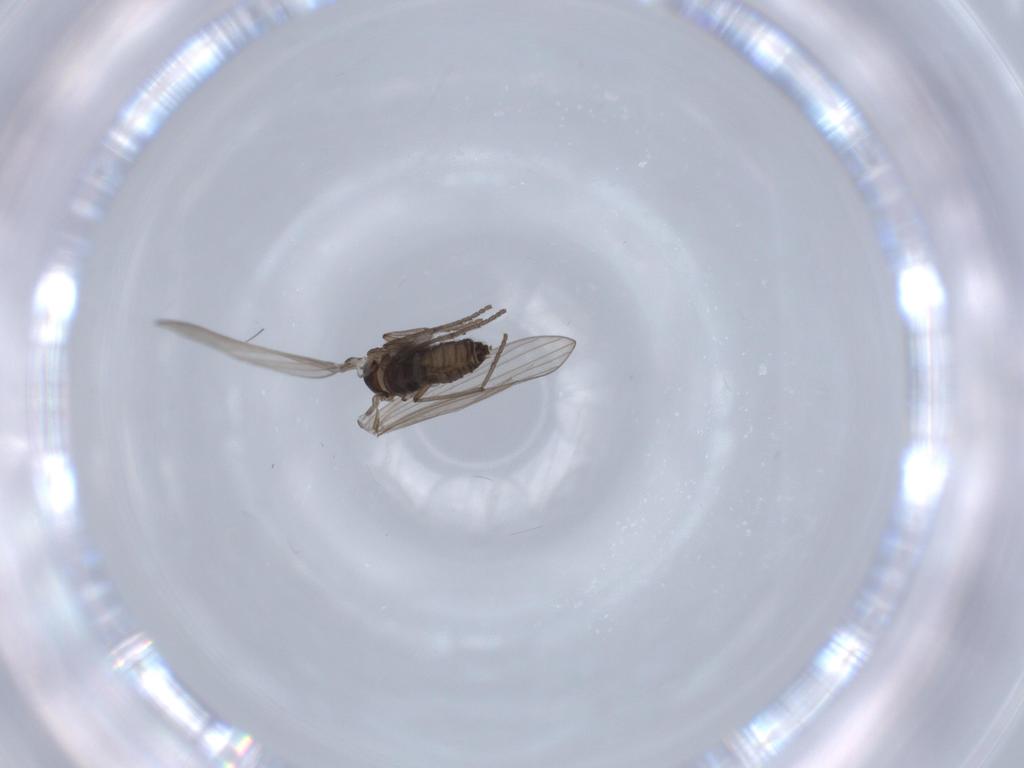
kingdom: Animalia
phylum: Arthropoda
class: Insecta
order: Diptera
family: Psychodidae
